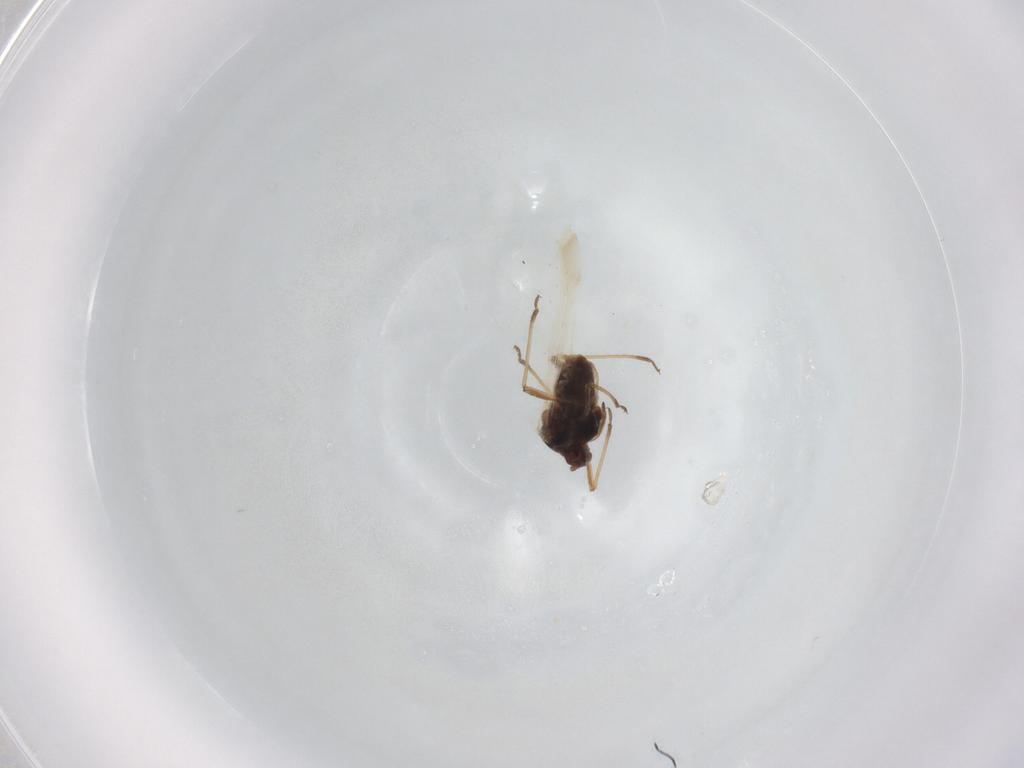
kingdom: Animalia
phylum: Arthropoda
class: Insecta
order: Hemiptera
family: Aphididae
